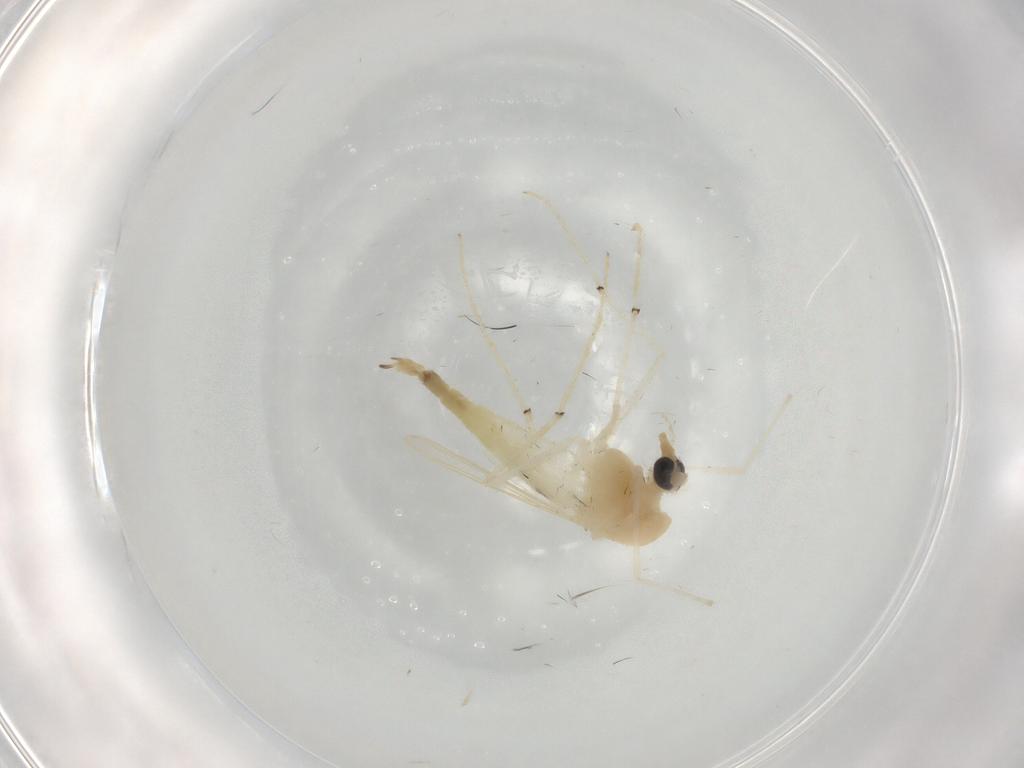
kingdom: Animalia
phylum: Arthropoda
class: Insecta
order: Diptera
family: Chironomidae
